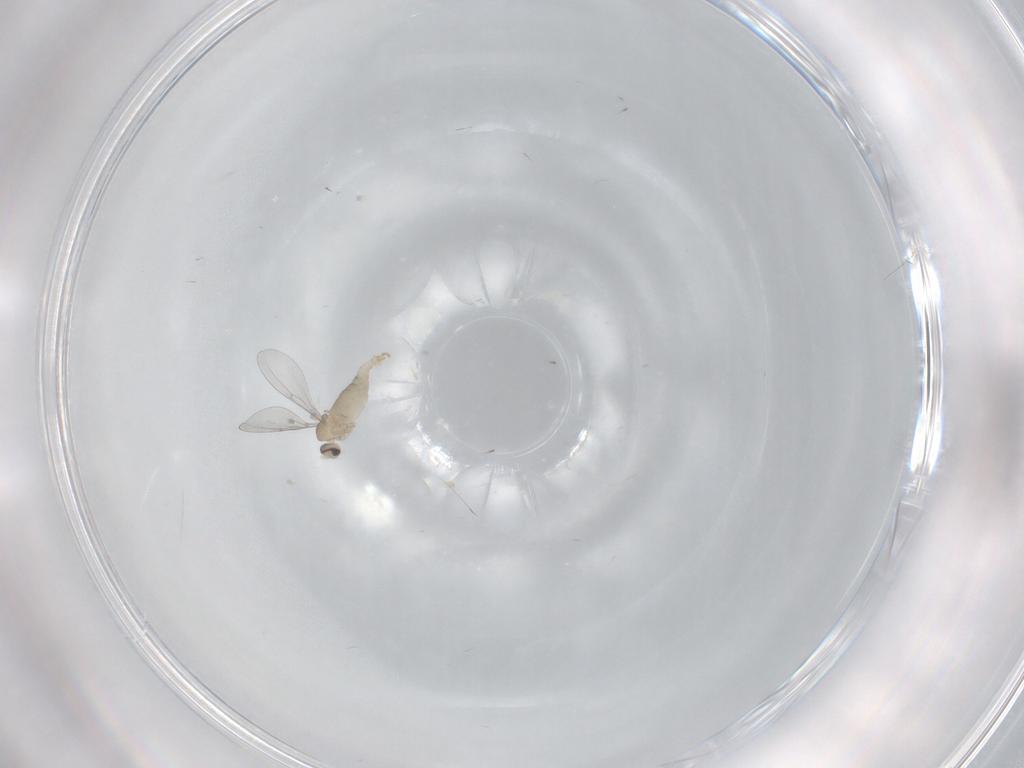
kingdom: Animalia
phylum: Arthropoda
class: Insecta
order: Diptera
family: Cecidomyiidae
